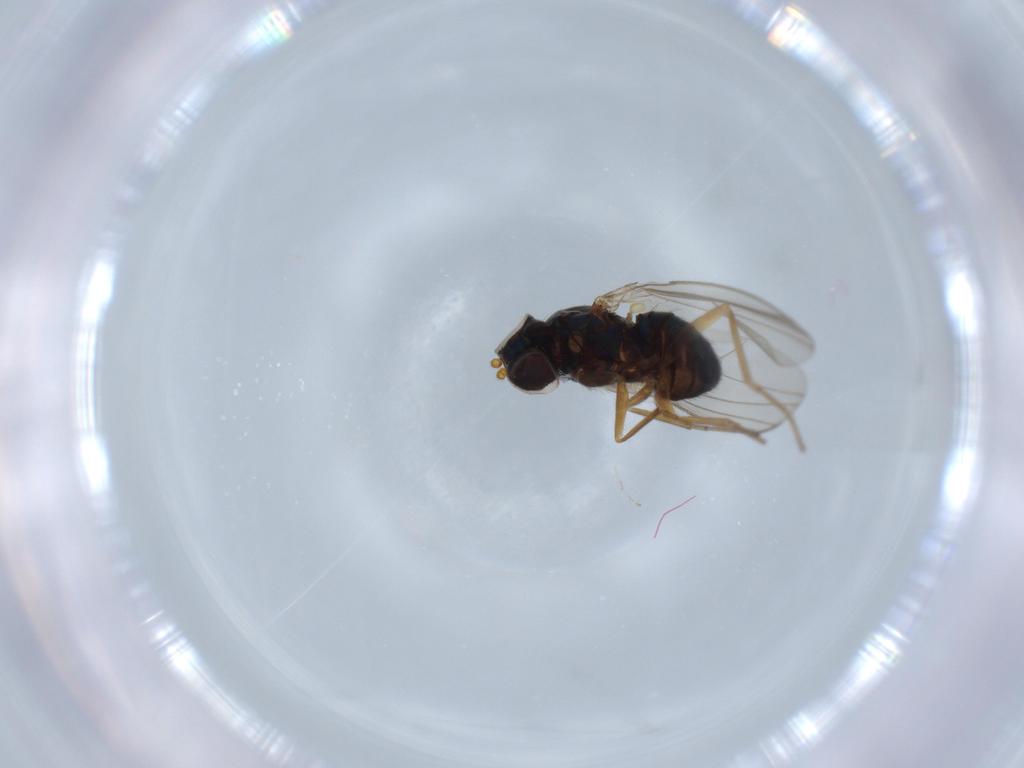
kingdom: Animalia
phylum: Arthropoda
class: Insecta
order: Diptera
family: Cecidomyiidae
